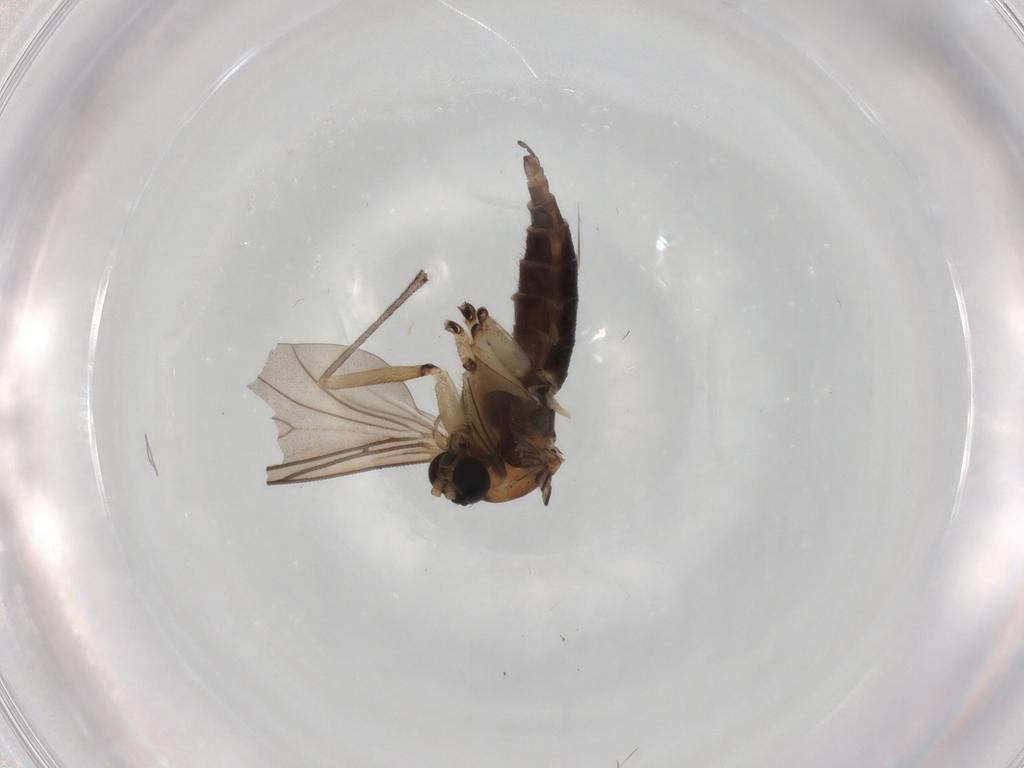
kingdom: Animalia
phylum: Arthropoda
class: Insecta
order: Diptera
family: Sciaridae
